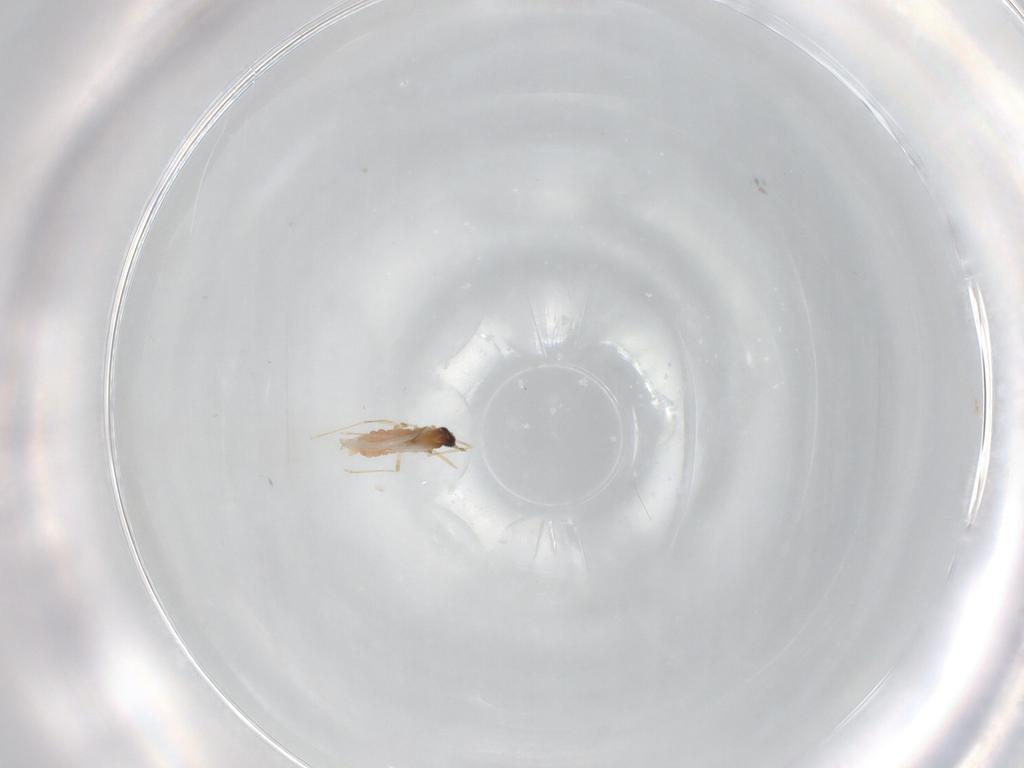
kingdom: Animalia
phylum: Arthropoda
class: Insecta
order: Diptera
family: Cecidomyiidae
